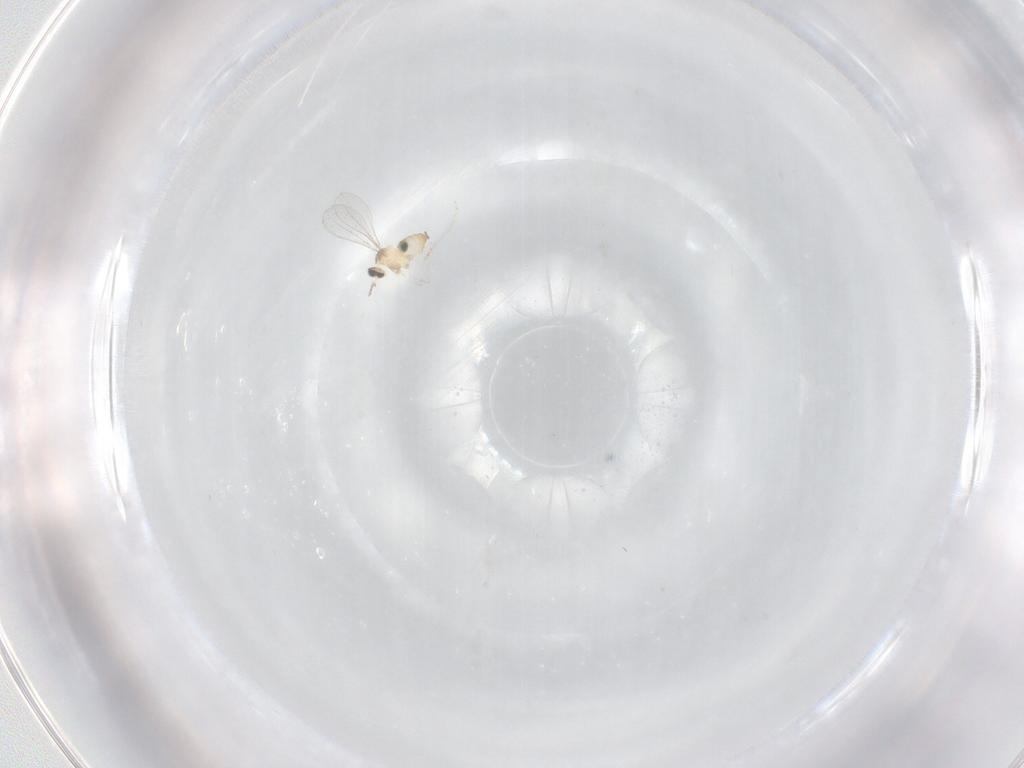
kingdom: Animalia
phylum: Arthropoda
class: Insecta
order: Diptera
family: Cecidomyiidae
